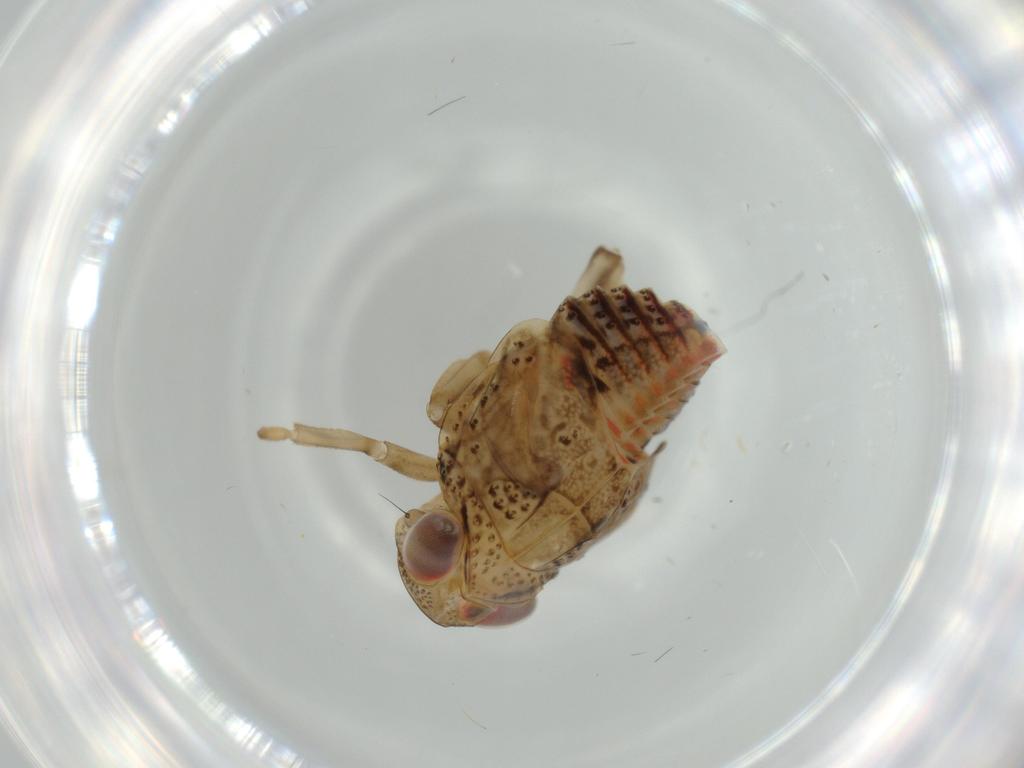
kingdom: Animalia
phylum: Arthropoda
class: Insecta
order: Hemiptera
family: Issidae
